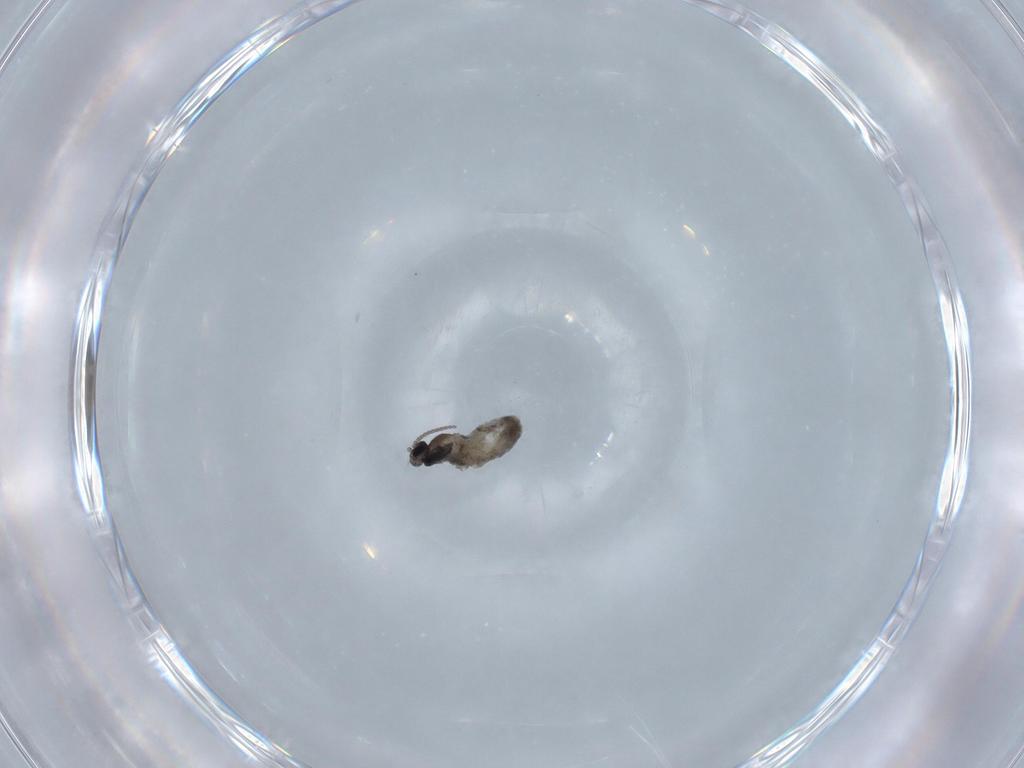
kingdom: Animalia
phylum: Arthropoda
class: Insecta
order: Diptera
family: Cecidomyiidae
